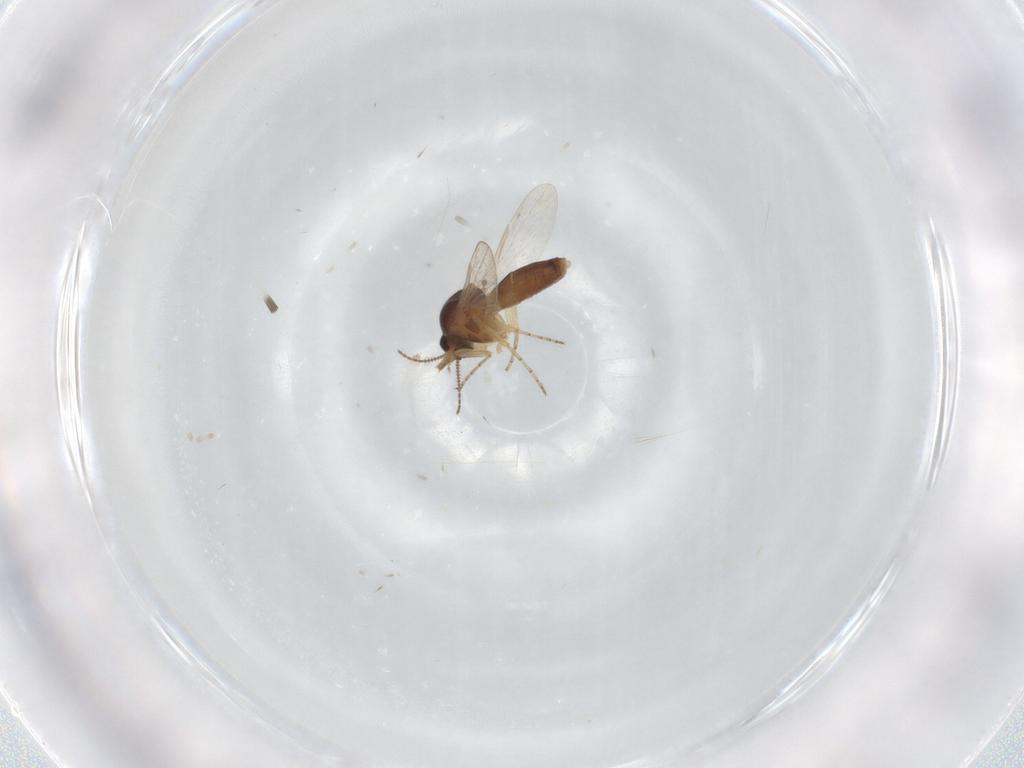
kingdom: Animalia
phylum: Arthropoda
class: Insecta
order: Diptera
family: Ceratopogonidae
